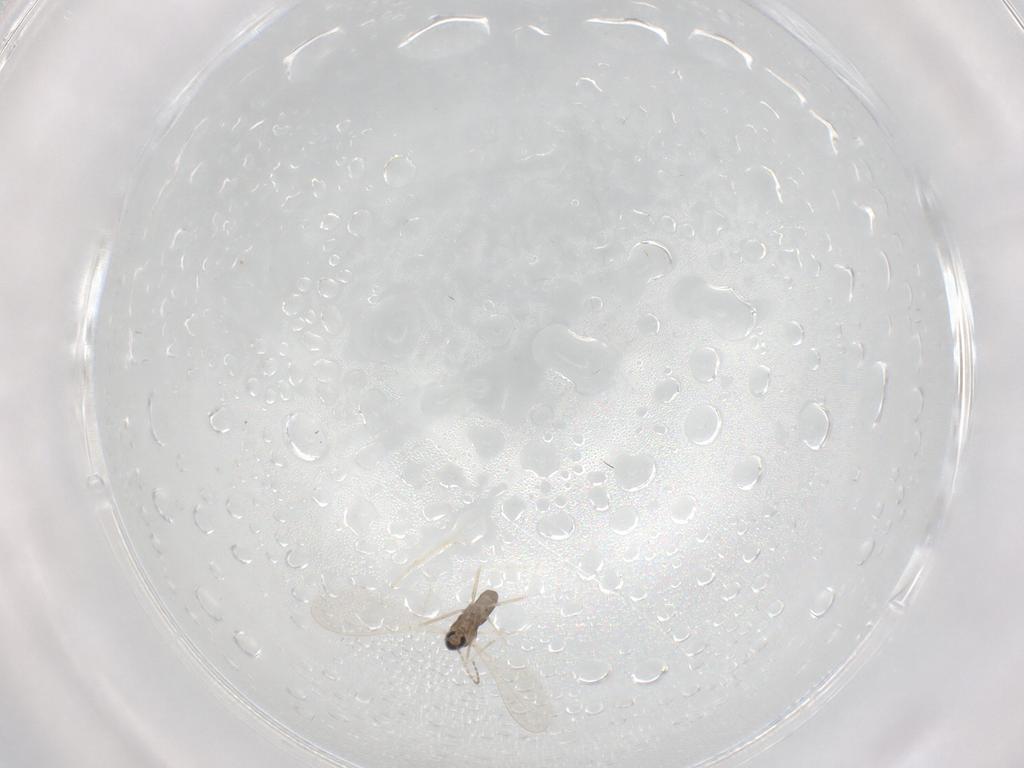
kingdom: Animalia
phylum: Arthropoda
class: Insecta
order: Diptera
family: Cecidomyiidae
